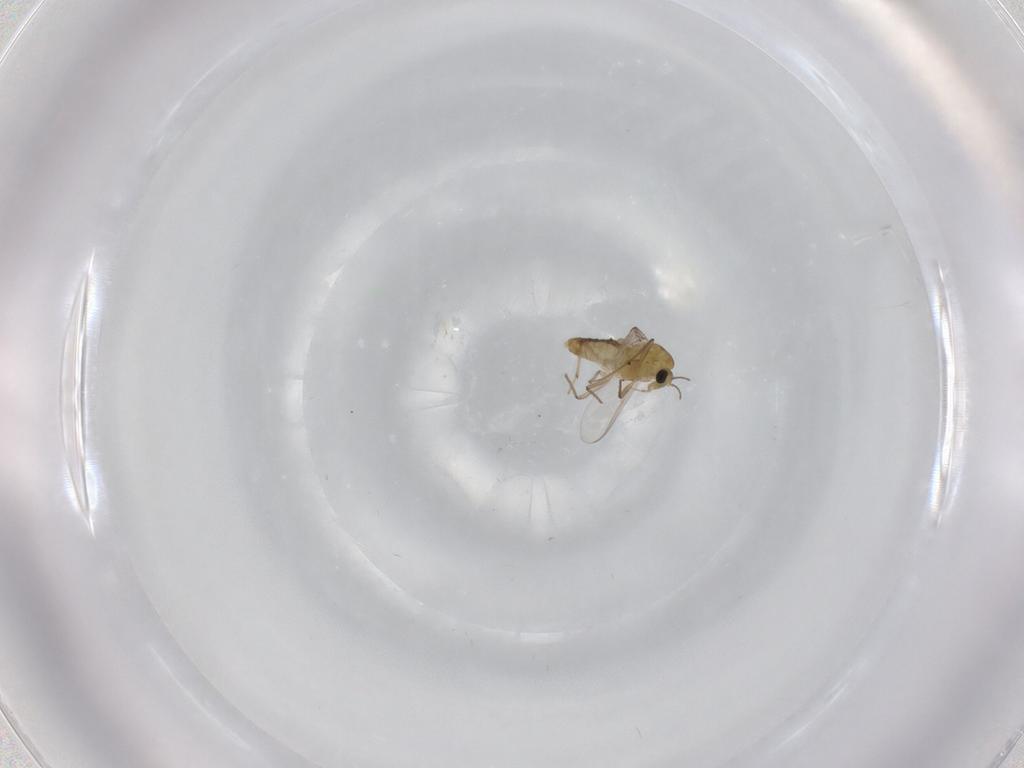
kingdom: Animalia
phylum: Arthropoda
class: Insecta
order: Diptera
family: Chironomidae
